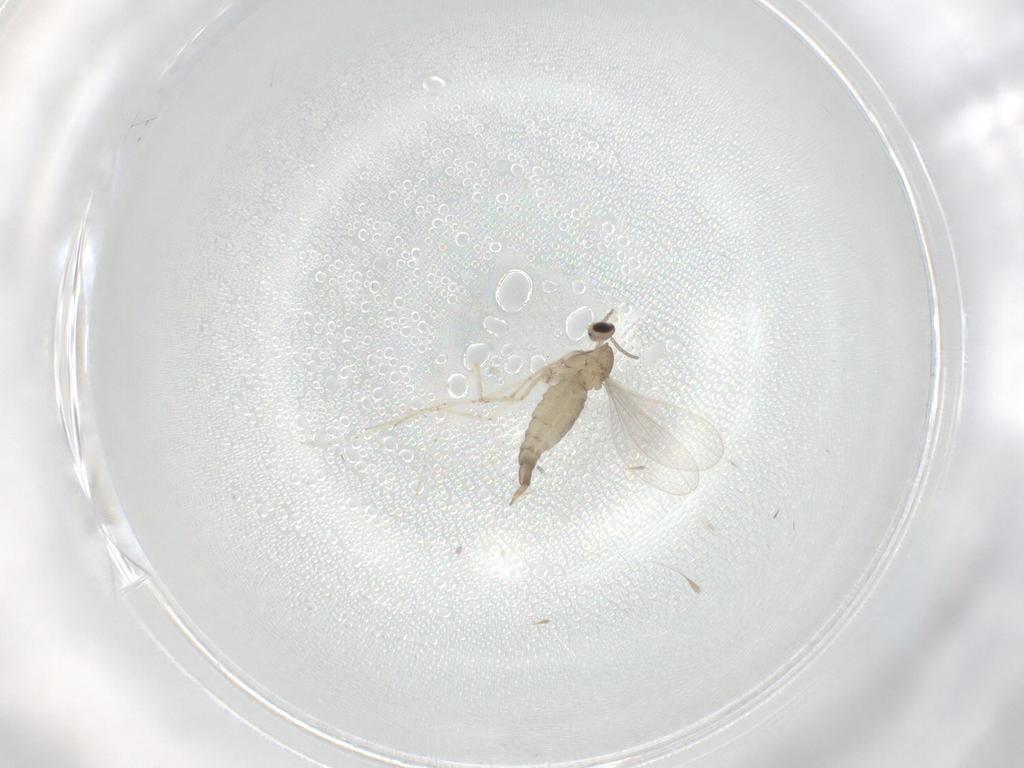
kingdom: Animalia
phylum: Arthropoda
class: Insecta
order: Diptera
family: Cecidomyiidae
